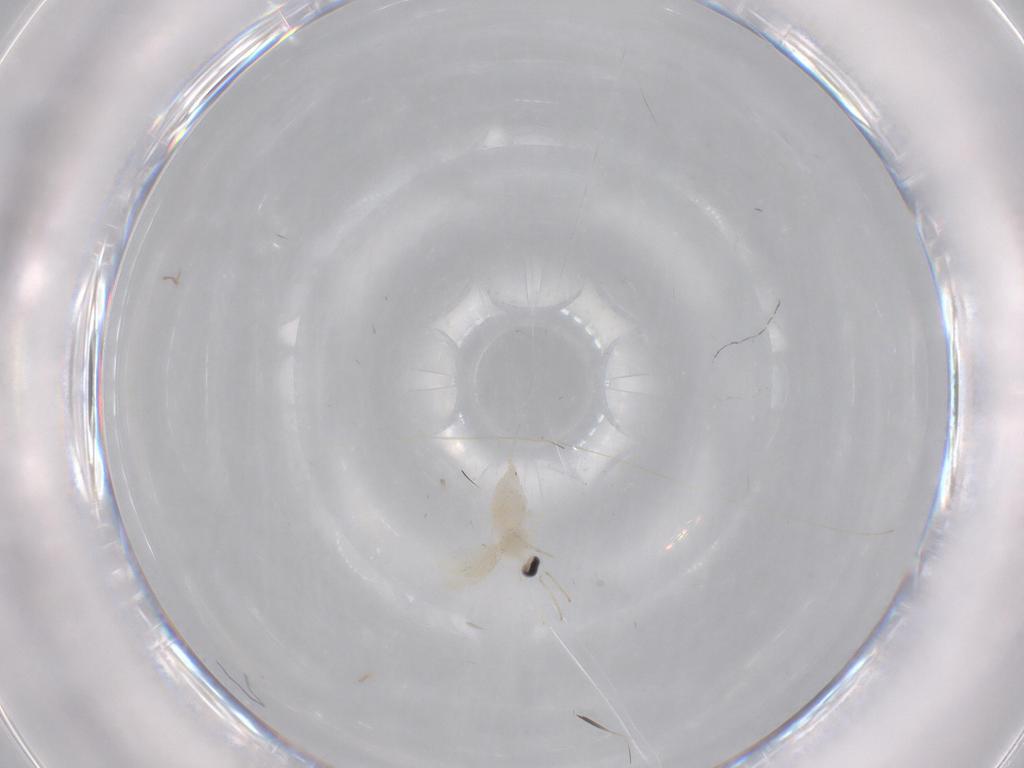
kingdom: Animalia
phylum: Arthropoda
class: Insecta
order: Diptera
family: Cecidomyiidae
